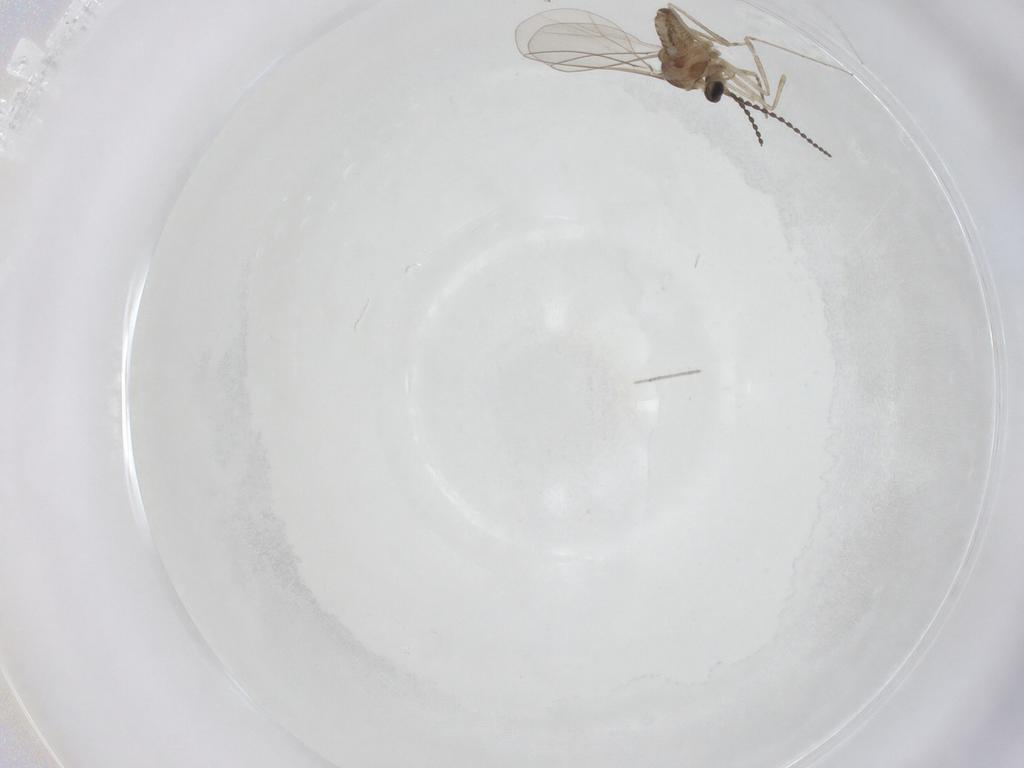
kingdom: Animalia
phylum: Arthropoda
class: Insecta
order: Diptera
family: Cecidomyiidae
